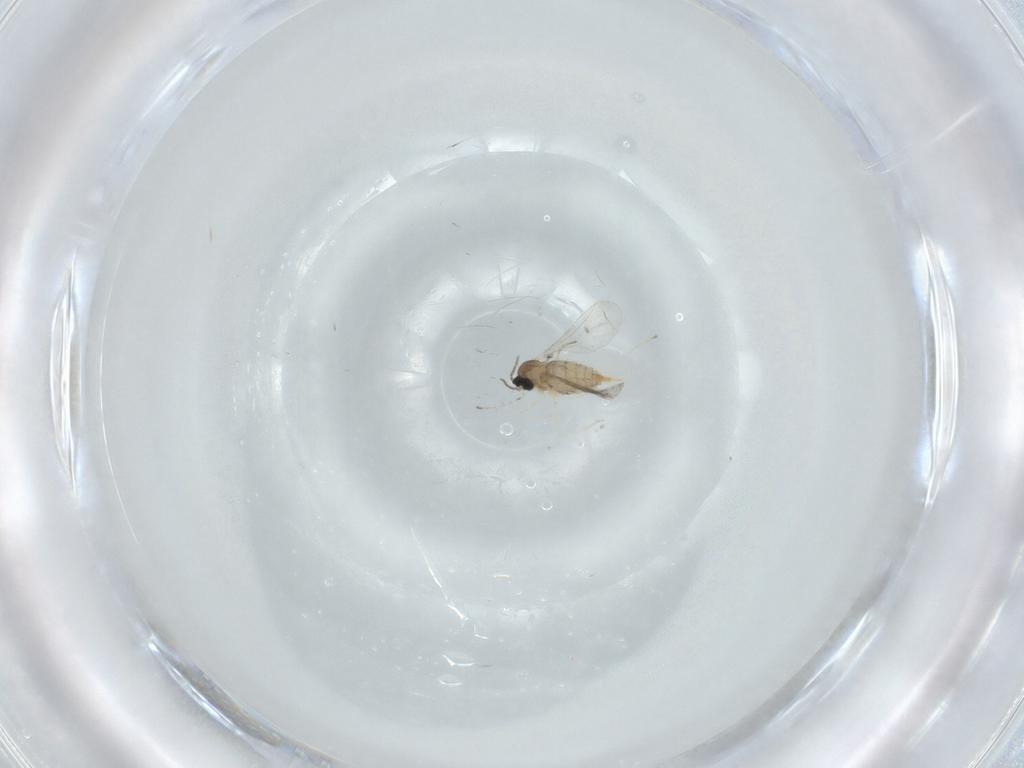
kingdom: Animalia
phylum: Arthropoda
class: Insecta
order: Diptera
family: Cecidomyiidae
